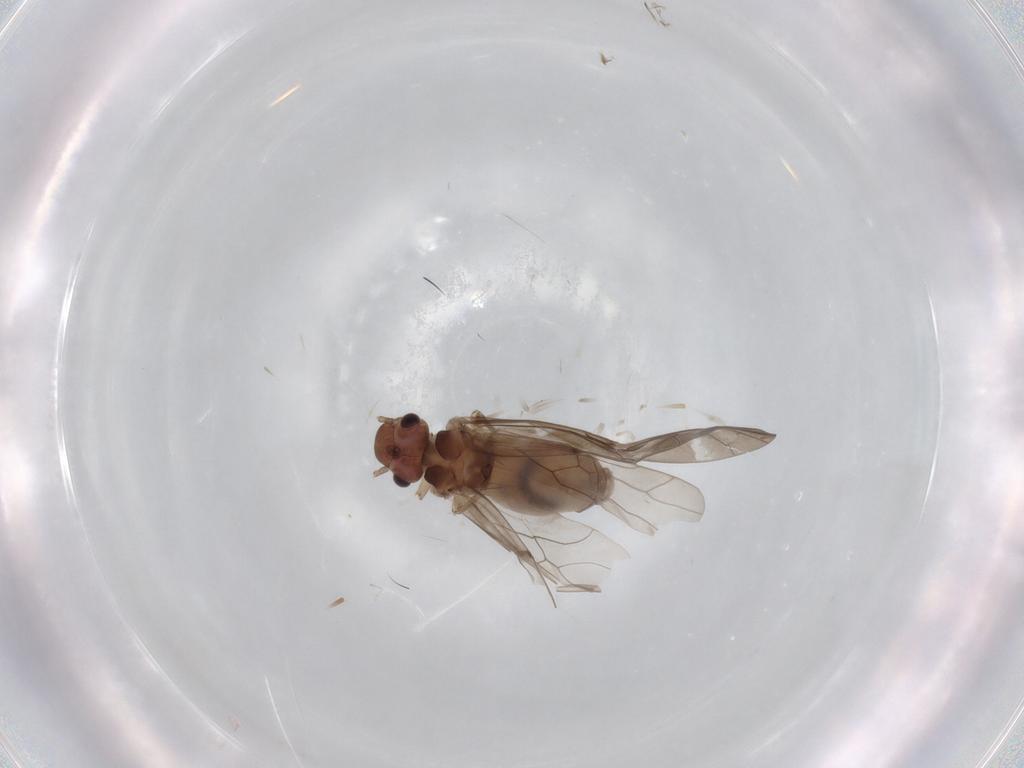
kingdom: Animalia
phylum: Arthropoda
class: Insecta
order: Psocodea
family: Peripsocidae
